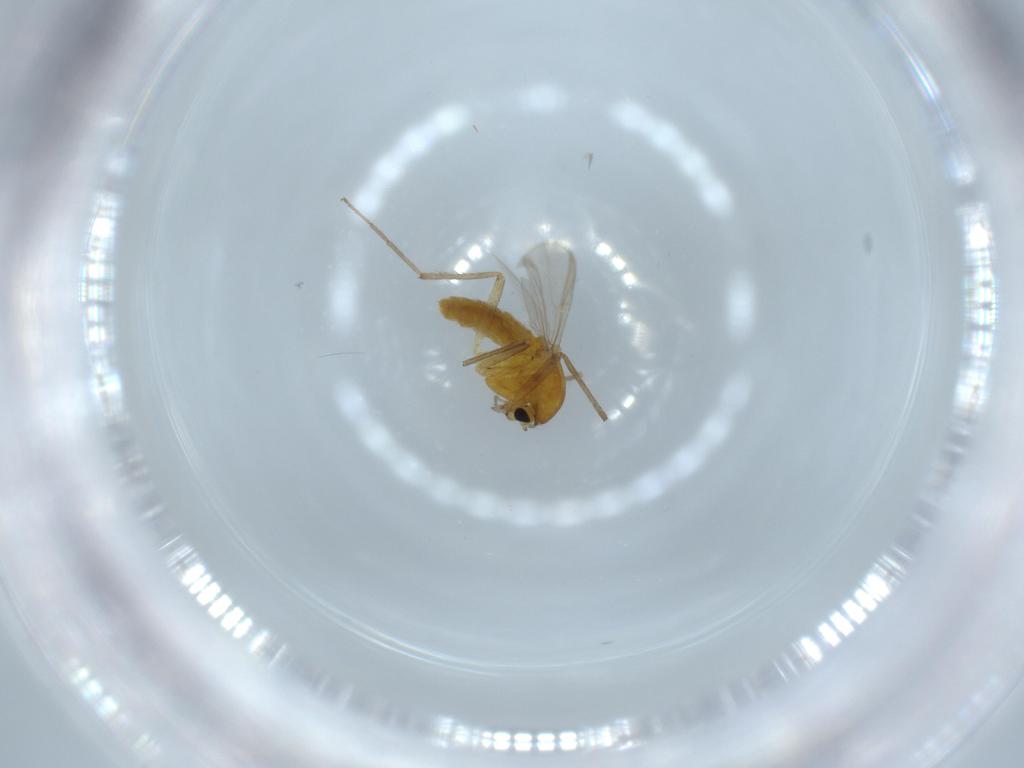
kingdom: Animalia
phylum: Arthropoda
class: Insecta
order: Diptera
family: Chironomidae
